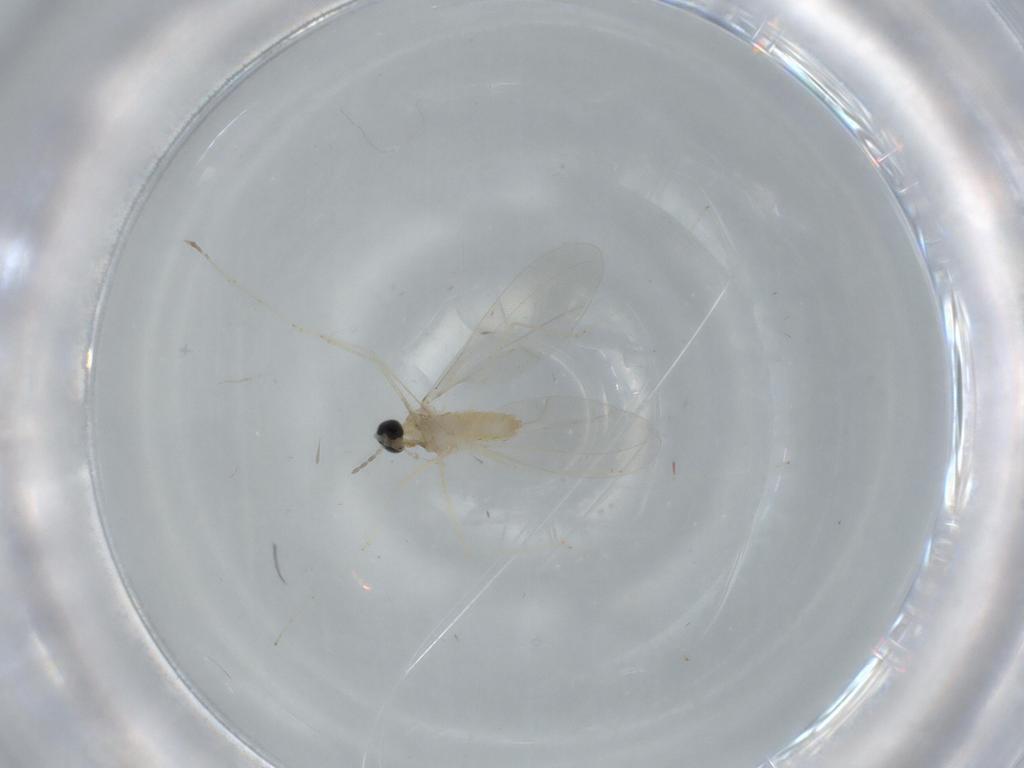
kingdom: Animalia
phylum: Arthropoda
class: Insecta
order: Diptera
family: Cecidomyiidae
